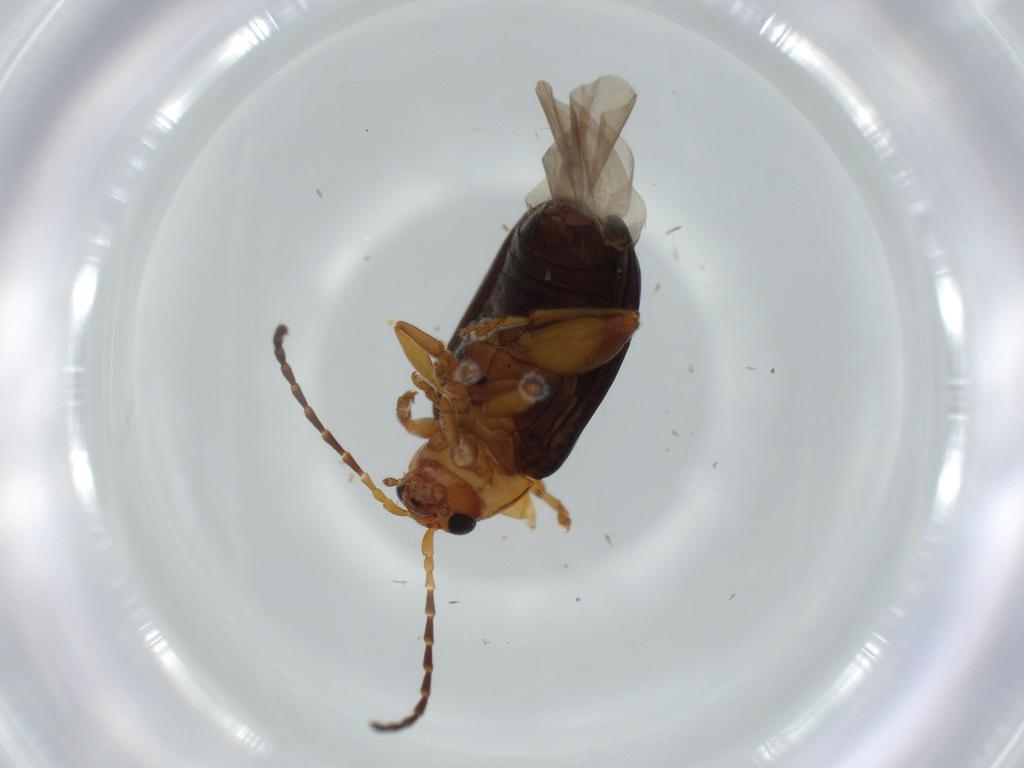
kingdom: Animalia
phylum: Arthropoda
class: Insecta
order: Coleoptera
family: Chrysomelidae
